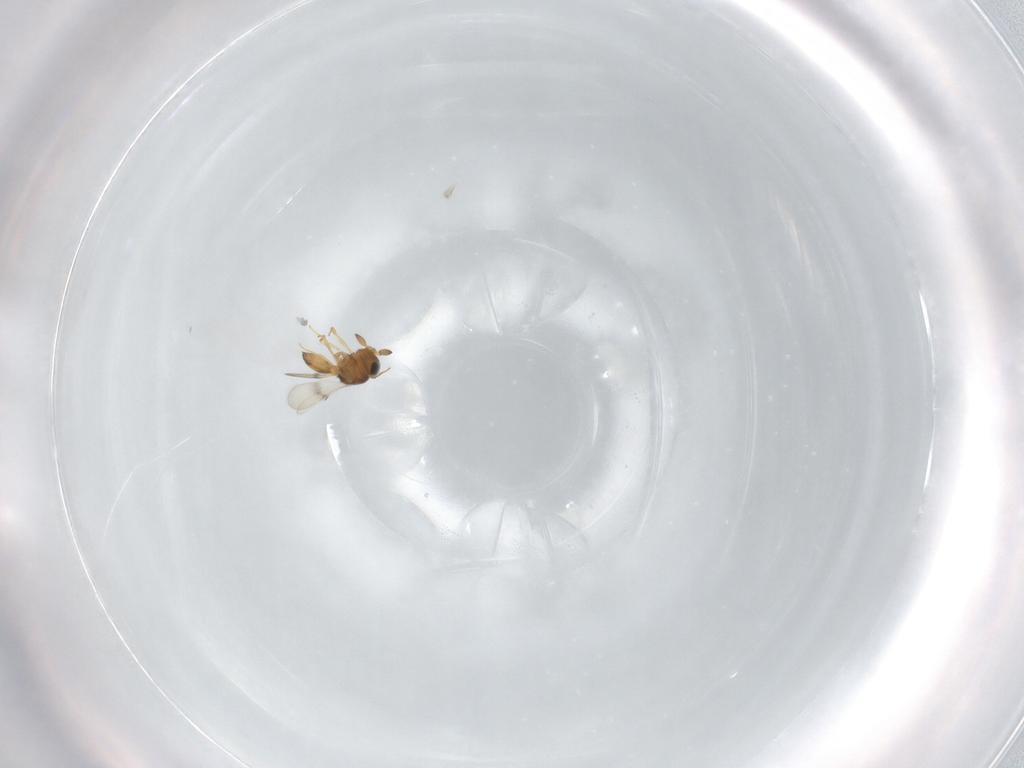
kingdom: Animalia
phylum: Arthropoda
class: Insecta
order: Hymenoptera
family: Scelionidae
